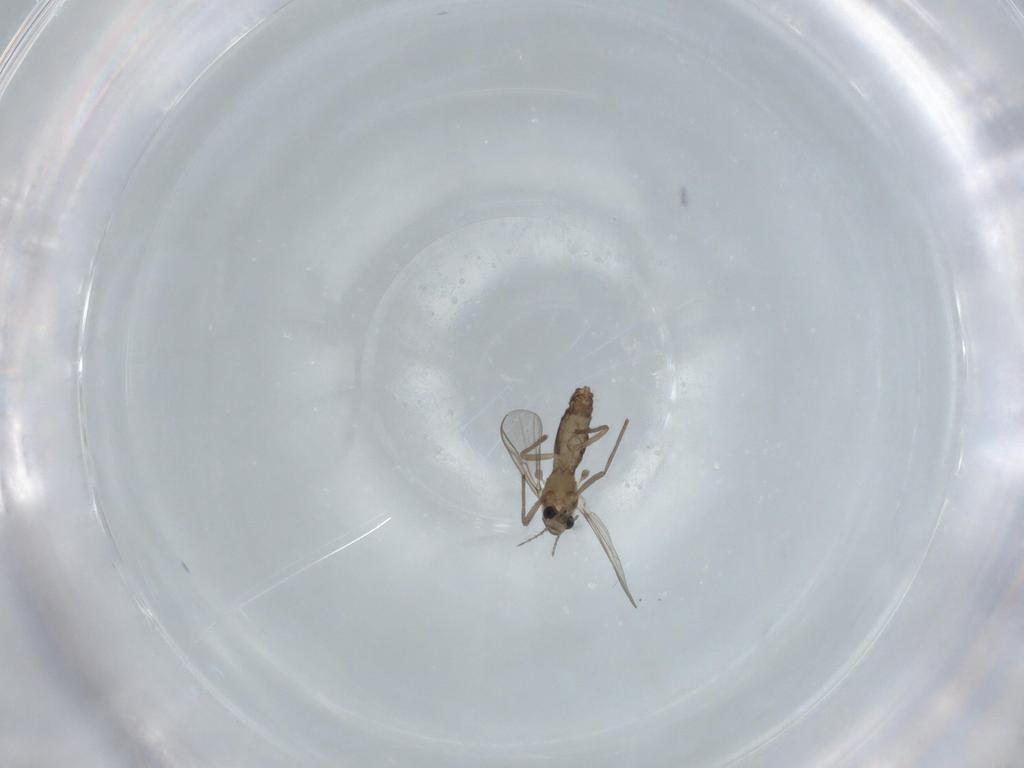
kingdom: Animalia
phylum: Arthropoda
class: Insecta
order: Diptera
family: Chironomidae
